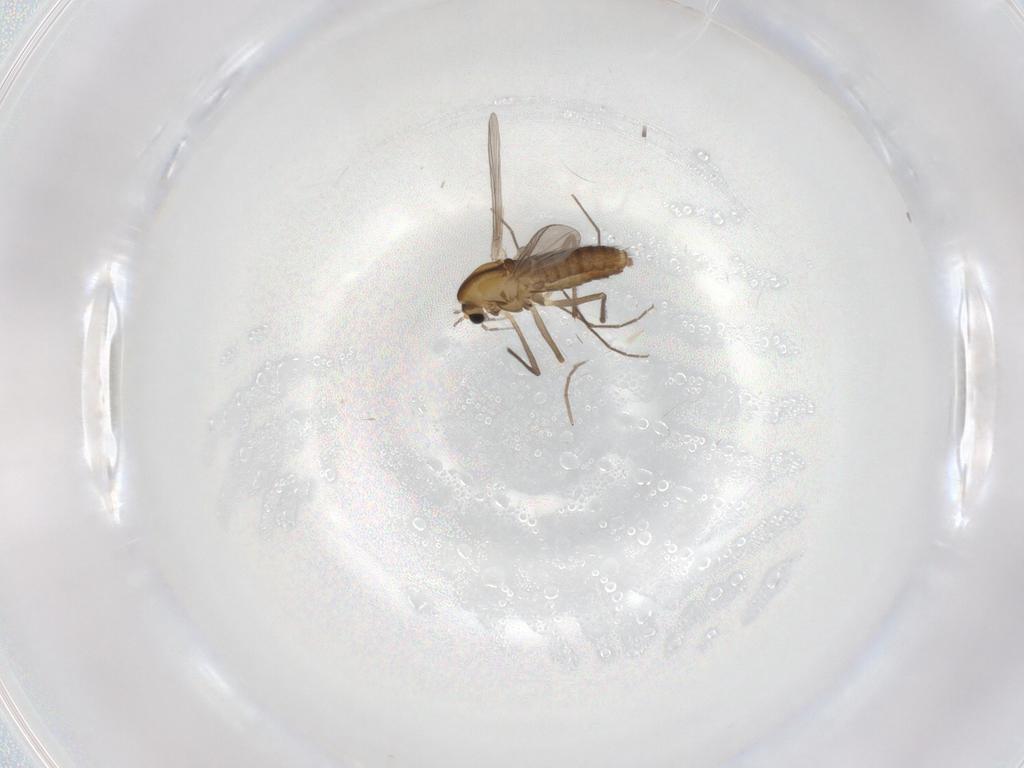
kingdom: Animalia
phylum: Arthropoda
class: Insecta
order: Diptera
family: Chironomidae
